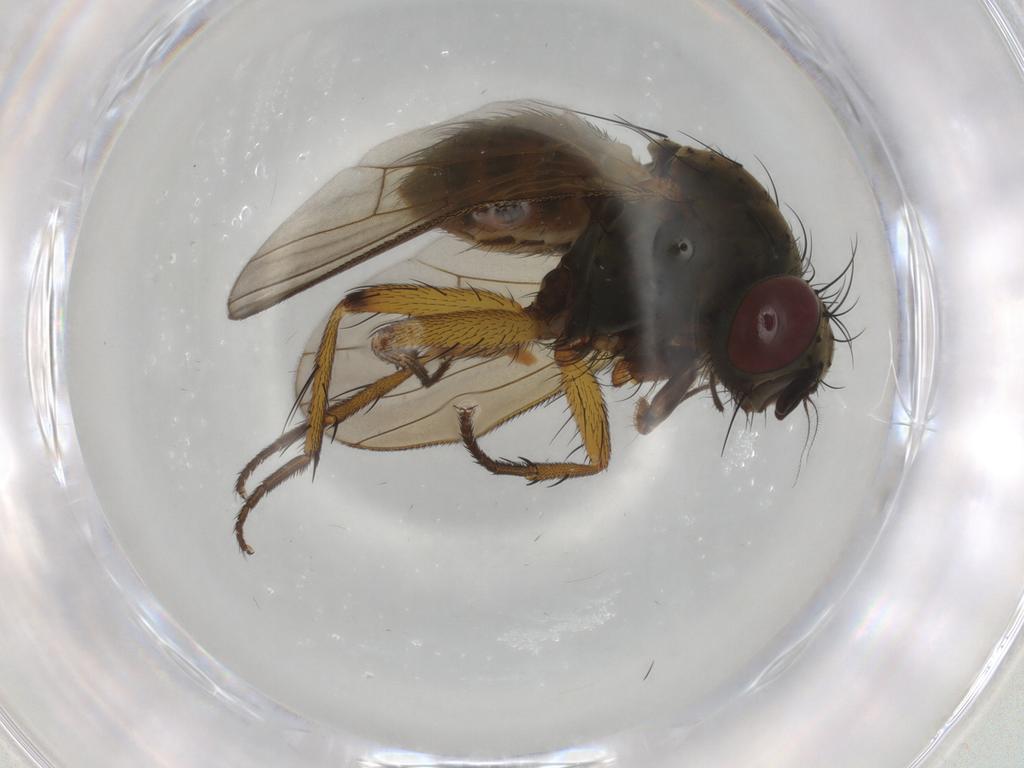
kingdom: Animalia
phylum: Arthropoda
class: Insecta
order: Diptera
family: Muscidae
